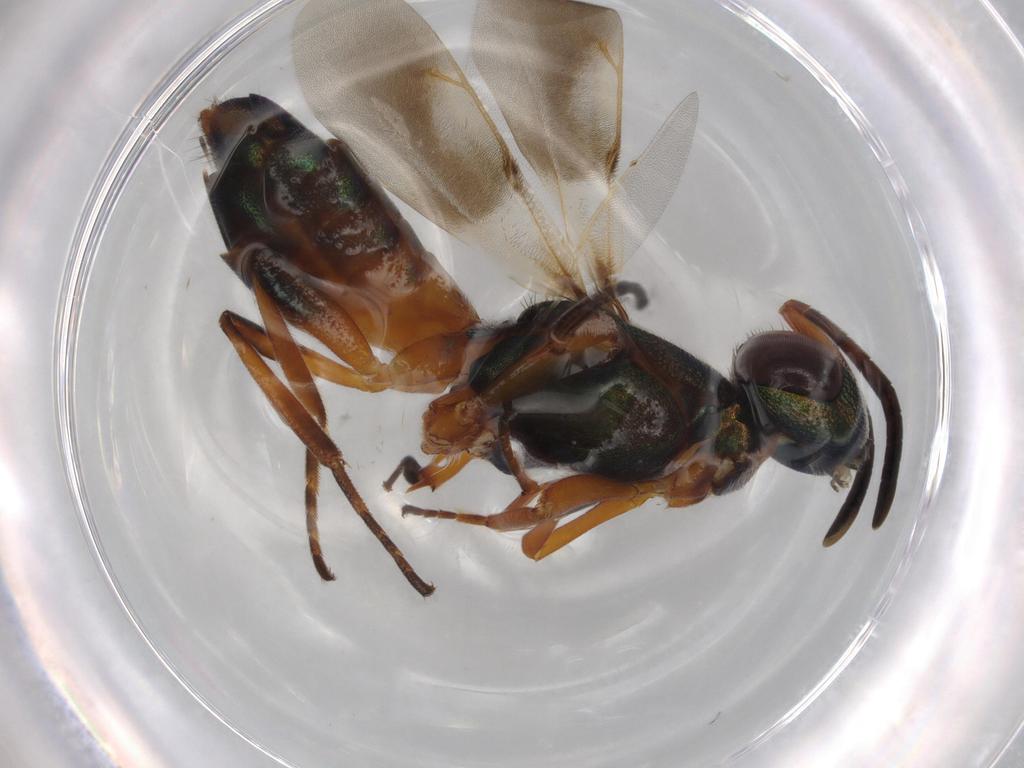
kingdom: Animalia
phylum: Arthropoda
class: Insecta
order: Hymenoptera
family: Eupelmidae
